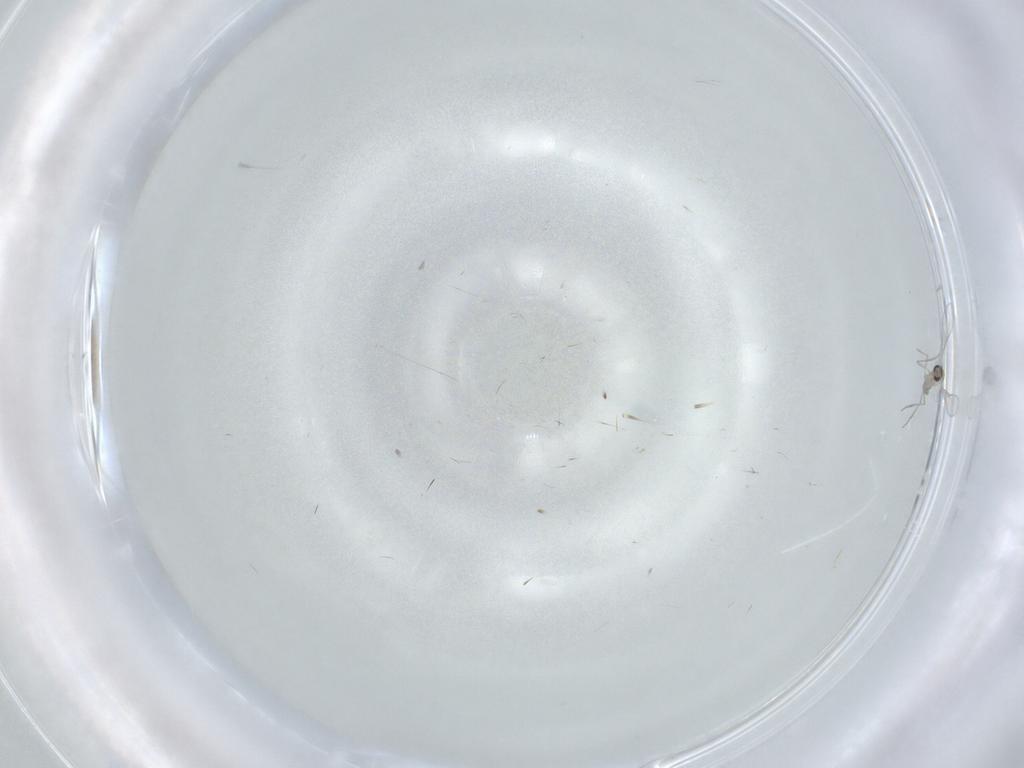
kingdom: Animalia
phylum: Arthropoda
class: Insecta
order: Diptera
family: Cecidomyiidae
